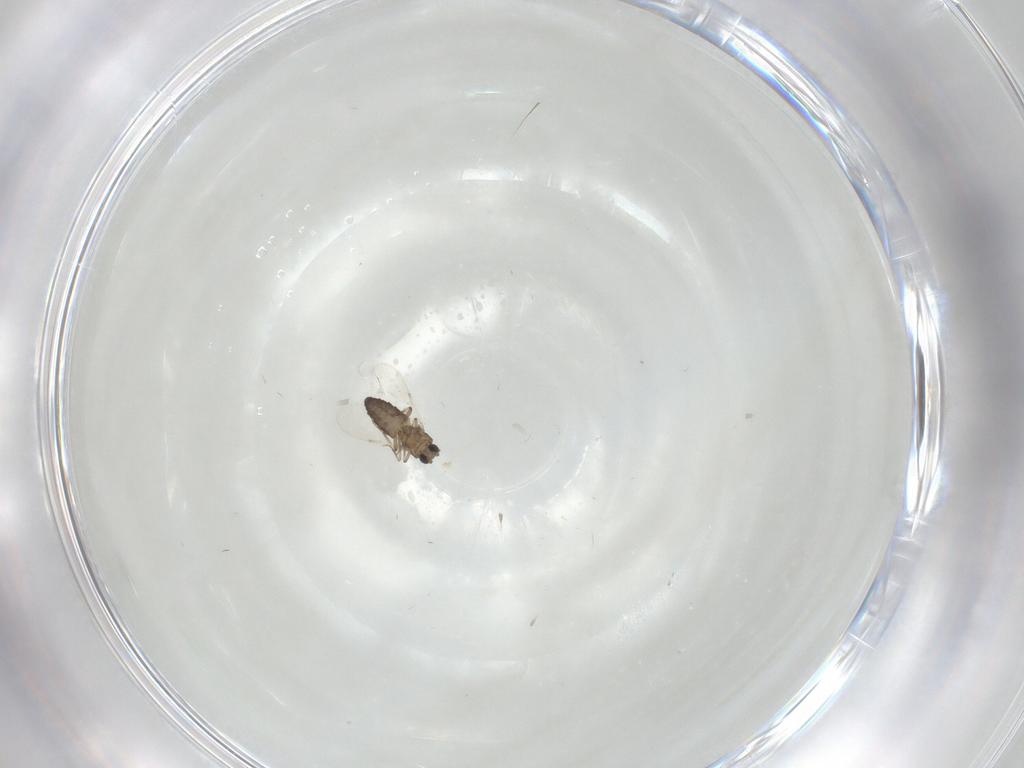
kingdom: Animalia
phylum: Arthropoda
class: Insecta
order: Diptera
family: Ceratopogonidae
